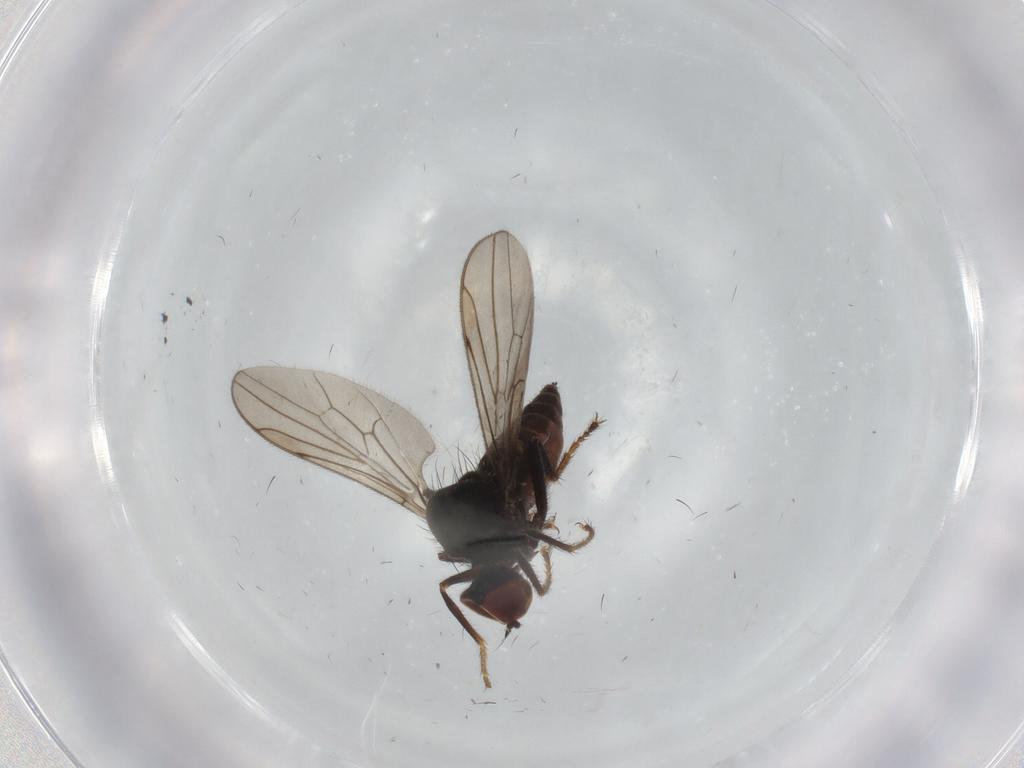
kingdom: Animalia
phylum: Arthropoda
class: Insecta
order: Diptera
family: Hybotidae
